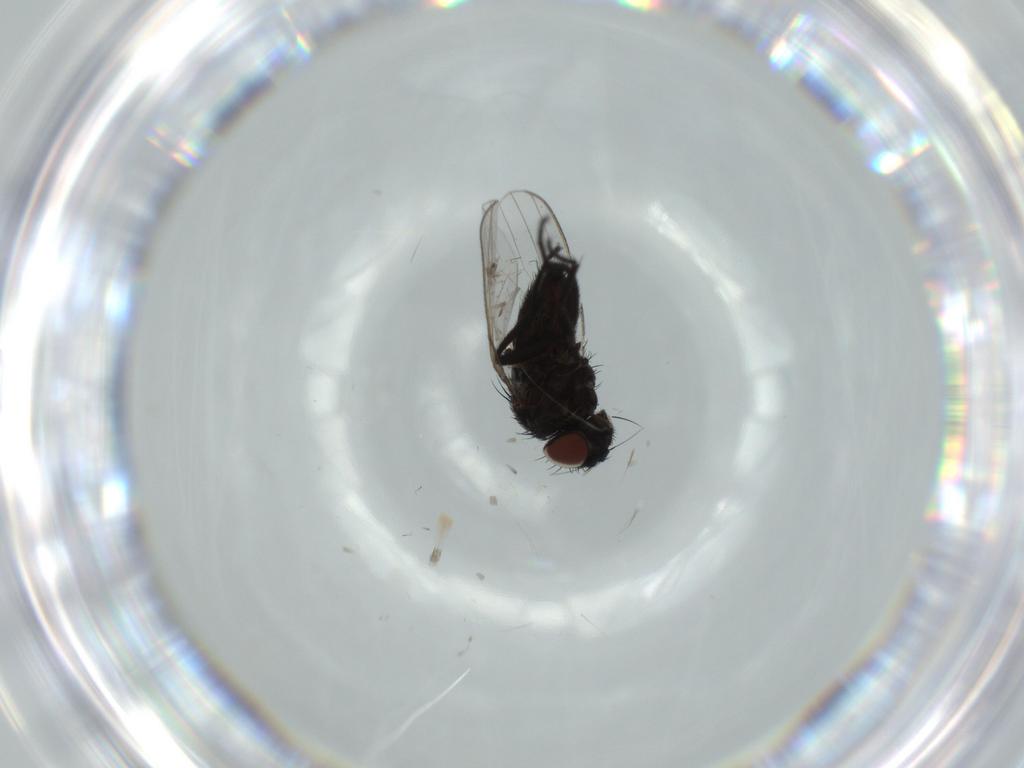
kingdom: Animalia
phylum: Arthropoda
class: Insecta
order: Diptera
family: Milichiidae
